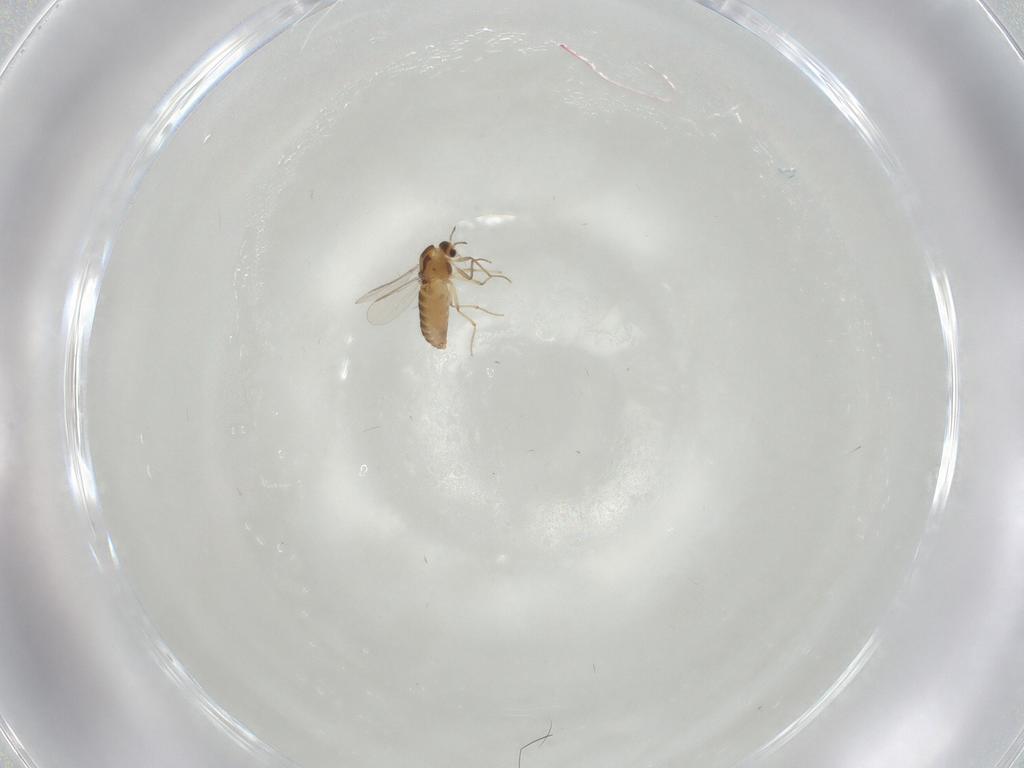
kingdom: Animalia
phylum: Arthropoda
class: Insecta
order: Diptera
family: Chironomidae
